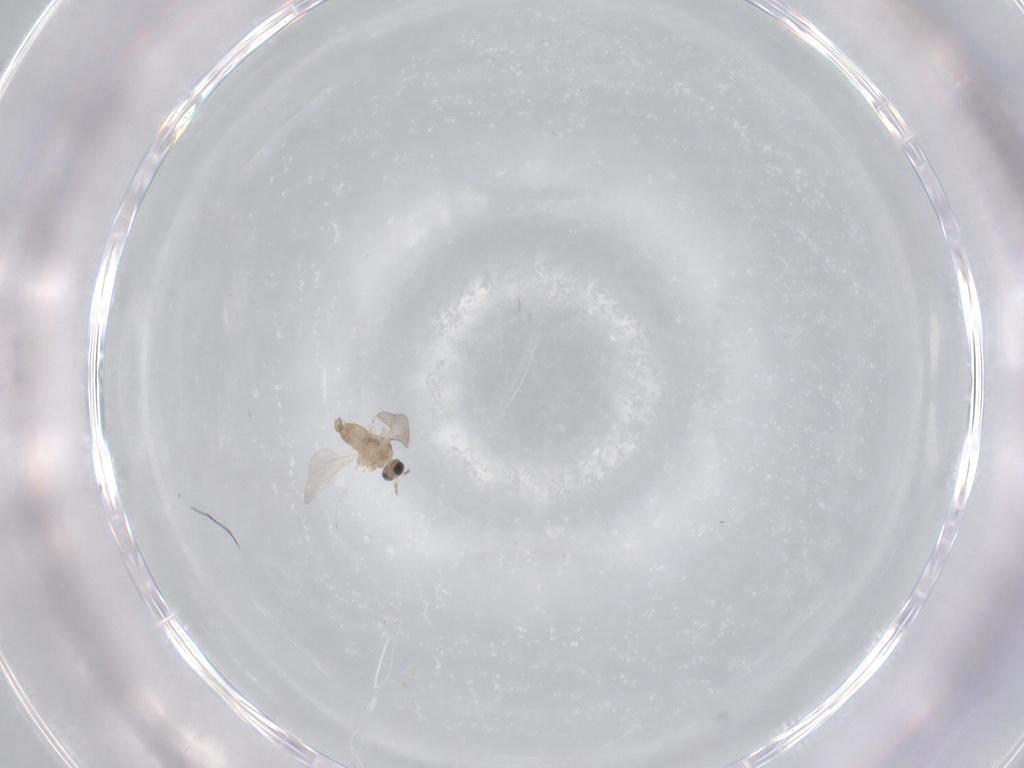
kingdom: Animalia
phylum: Arthropoda
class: Insecta
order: Diptera
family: Cecidomyiidae
